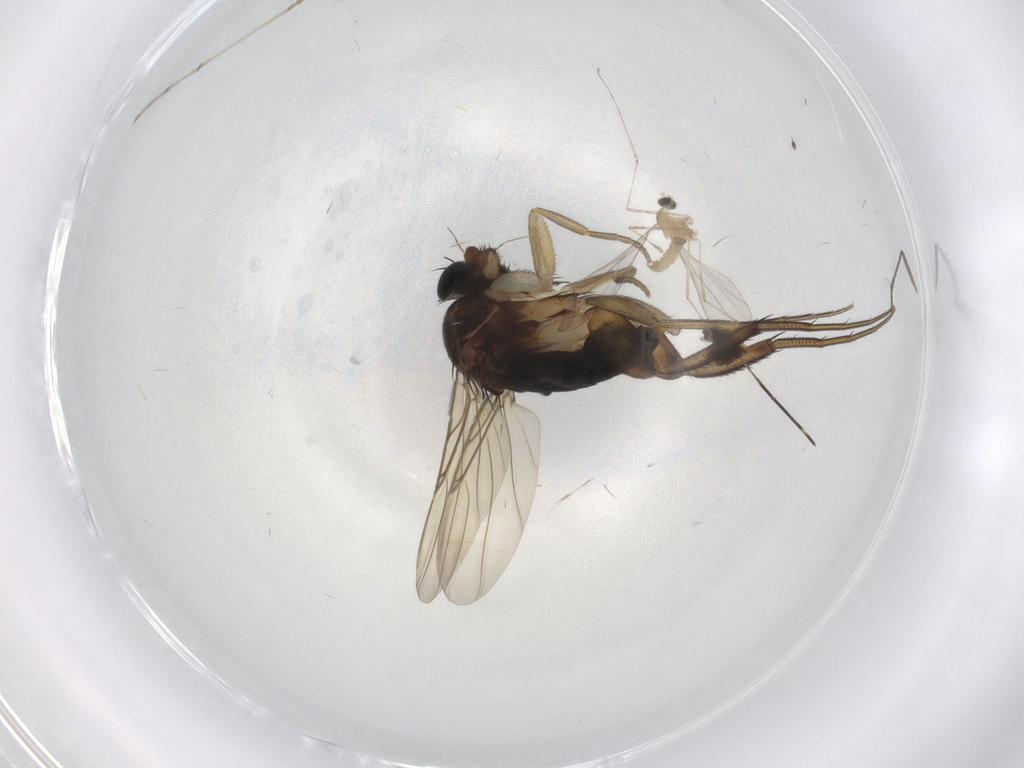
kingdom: Animalia
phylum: Arthropoda
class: Insecta
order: Diptera
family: Phoridae
